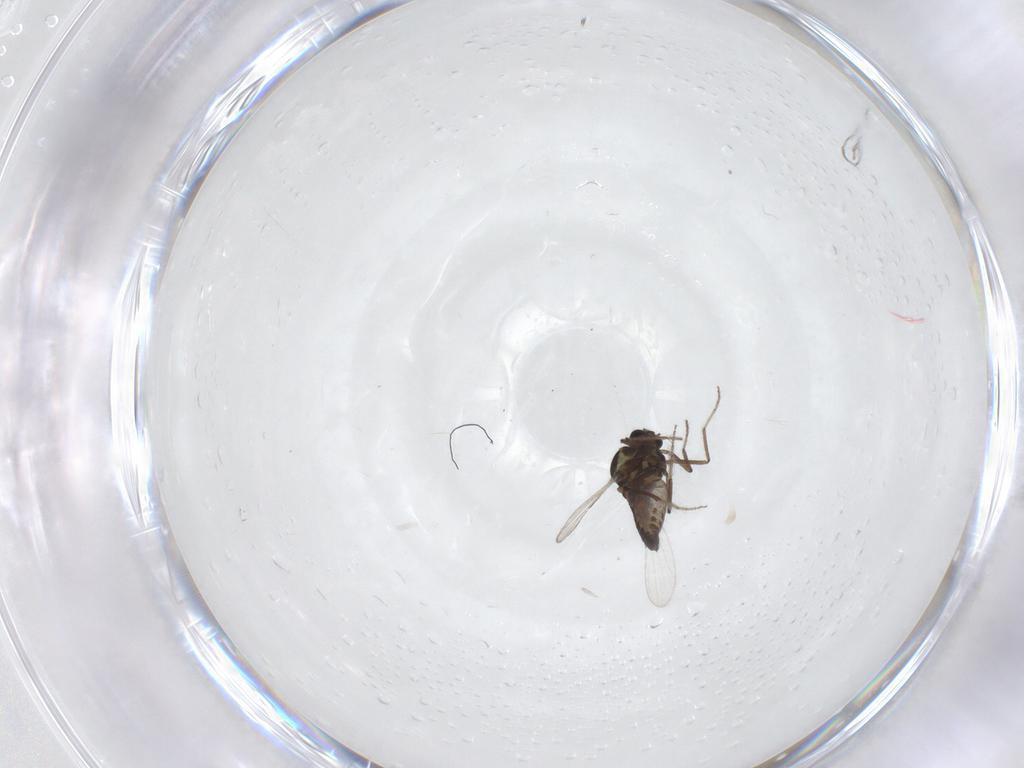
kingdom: Animalia
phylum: Arthropoda
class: Insecta
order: Diptera
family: Ceratopogonidae
